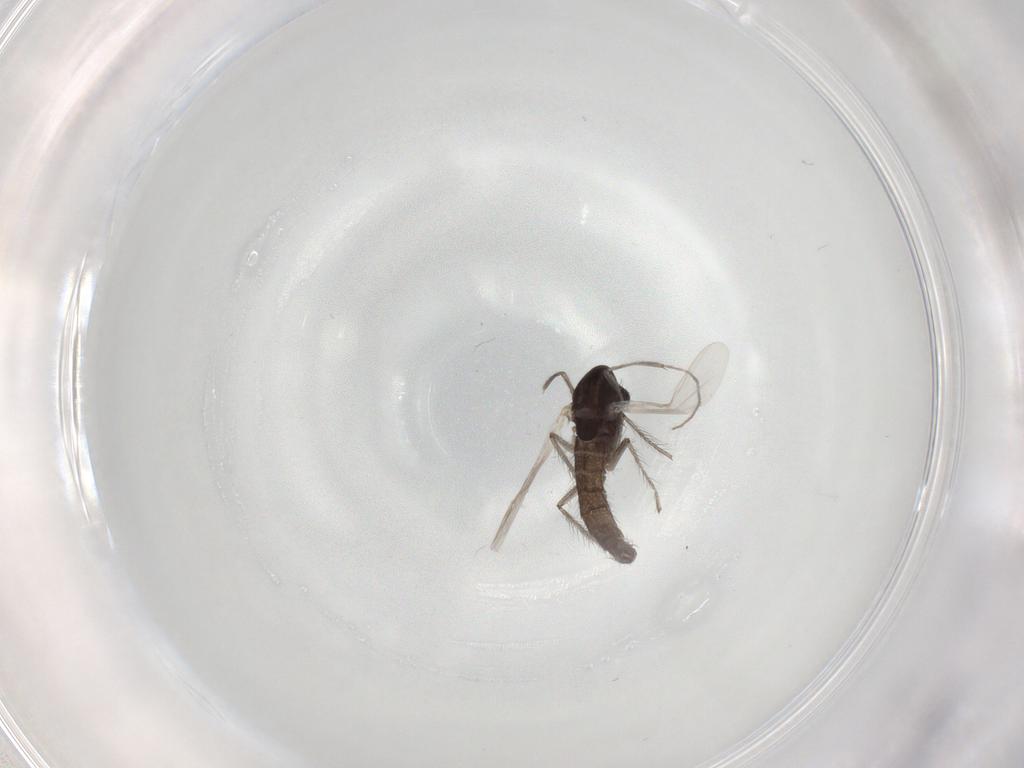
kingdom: Animalia
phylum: Arthropoda
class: Insecta
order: Diptera
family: Chironomidae
